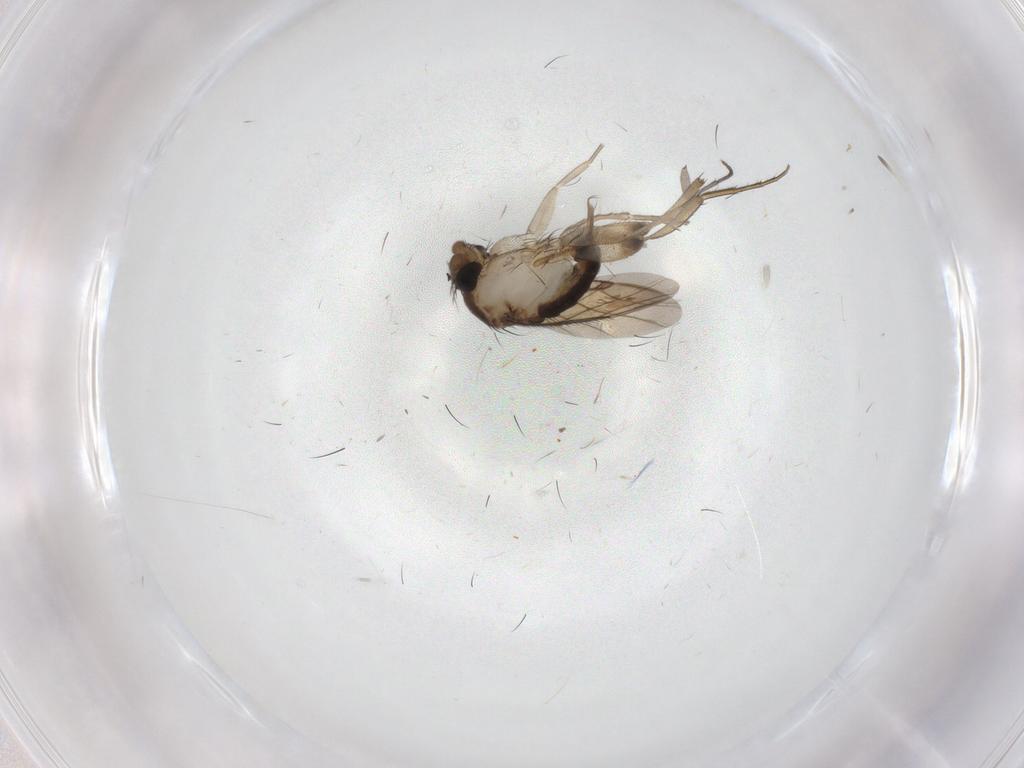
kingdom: Animalia
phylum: Arthropoda
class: Insecta
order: Diptera
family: Phoridae
